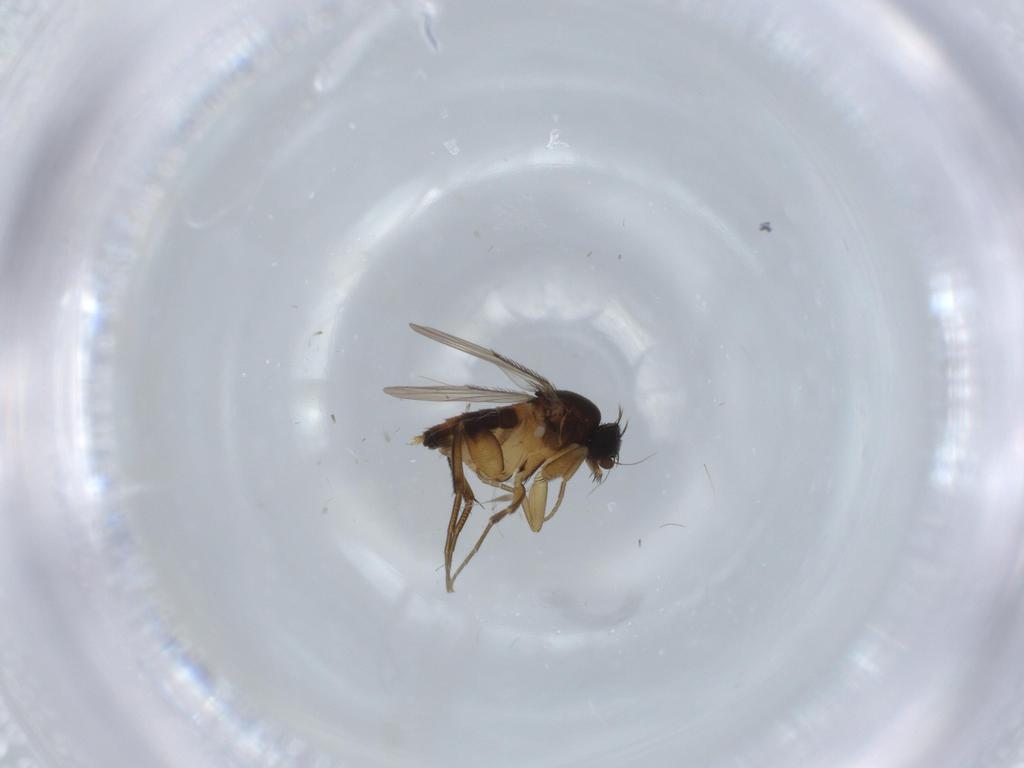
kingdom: Animalia
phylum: Arthropoda
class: Insecta
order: Diptera
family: Phoridae
